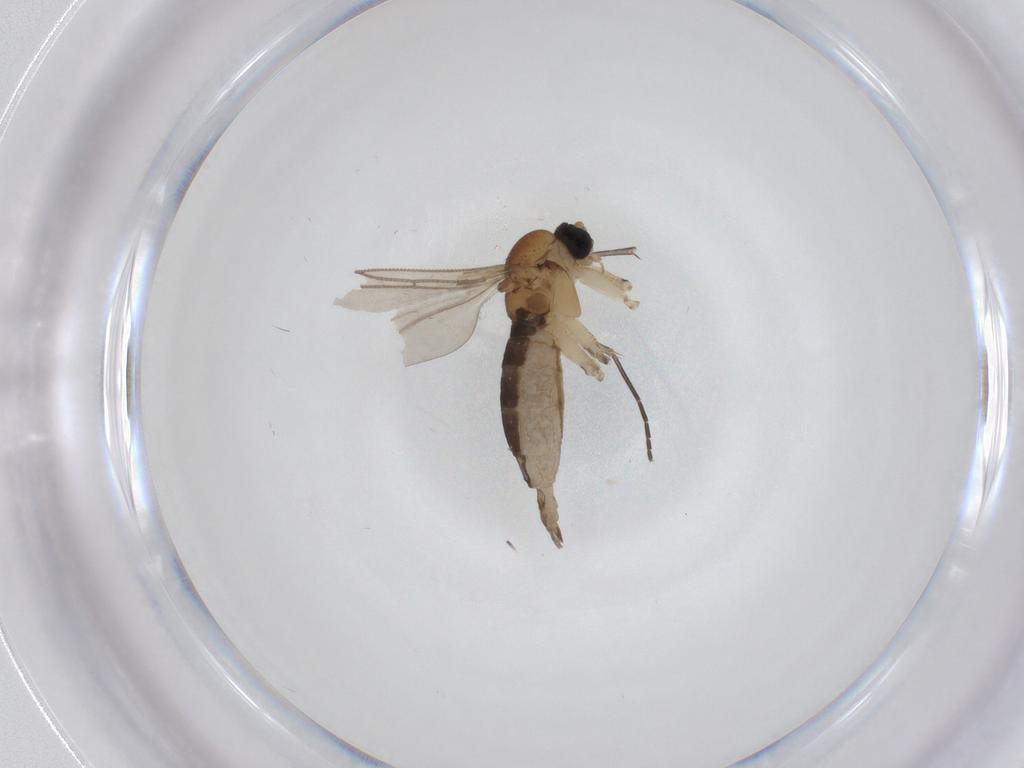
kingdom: Animalia
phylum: Arthropoda
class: Insecta
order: Diptera
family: Sciaridae
